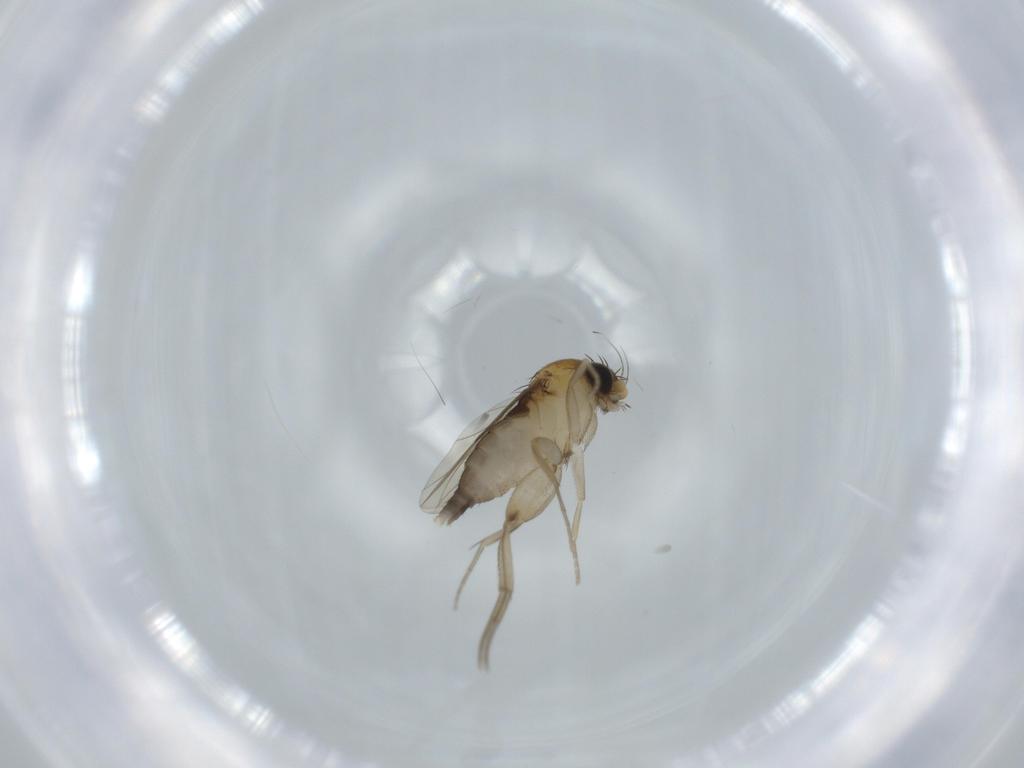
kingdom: Animalia
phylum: Arthropoda
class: Insecta
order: Diptera
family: Phoridae
